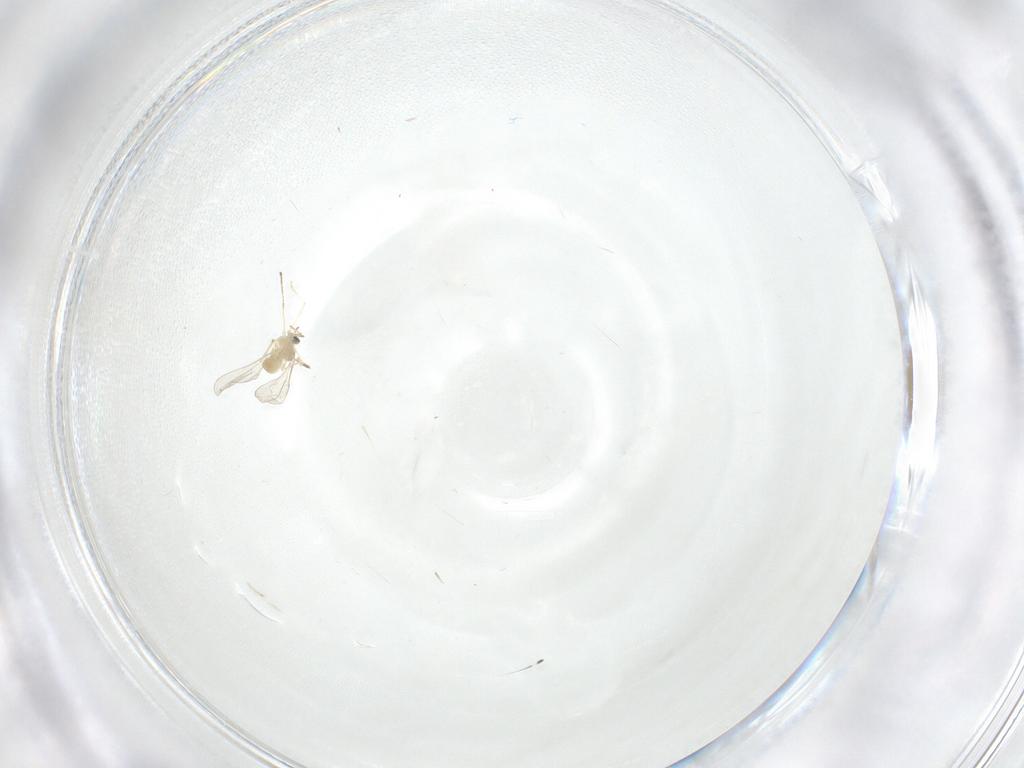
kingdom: Animalia
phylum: Arthropoda
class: Insecta
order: Diptera
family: Cecidomyiidae
